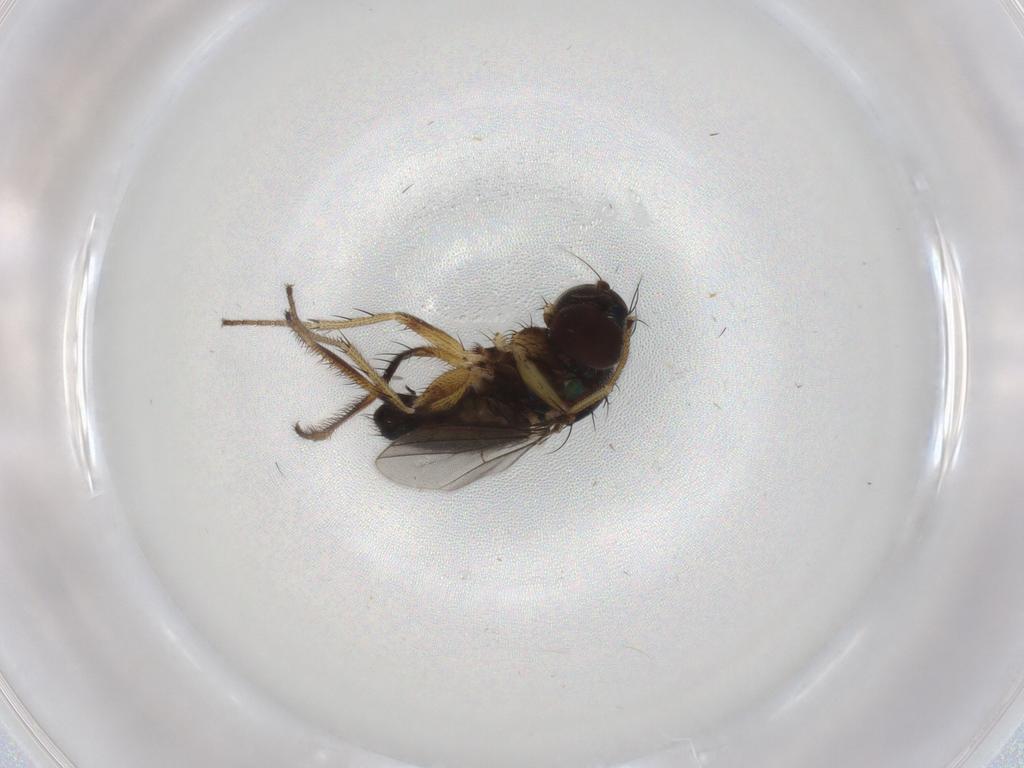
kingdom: Animalia
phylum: Arthropoda
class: Insecta
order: Diptera
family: Dolichopodidae
